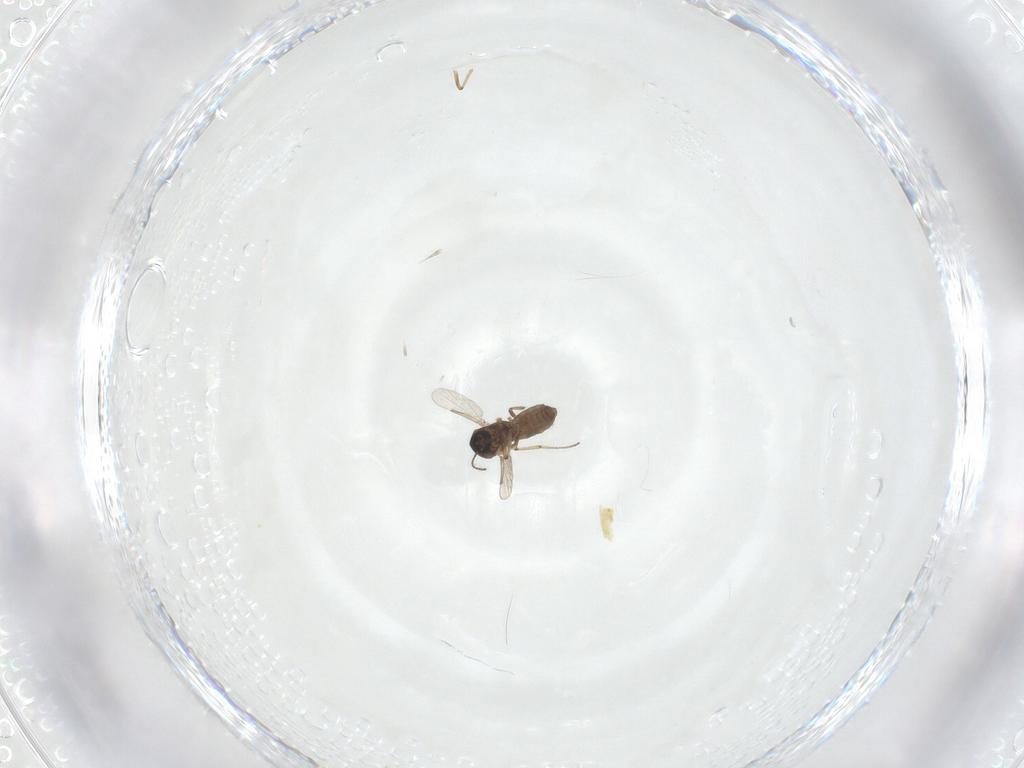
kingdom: Animalia
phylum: Arthropoda
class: Insecta
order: Diptera
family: Ceratopogonidae
